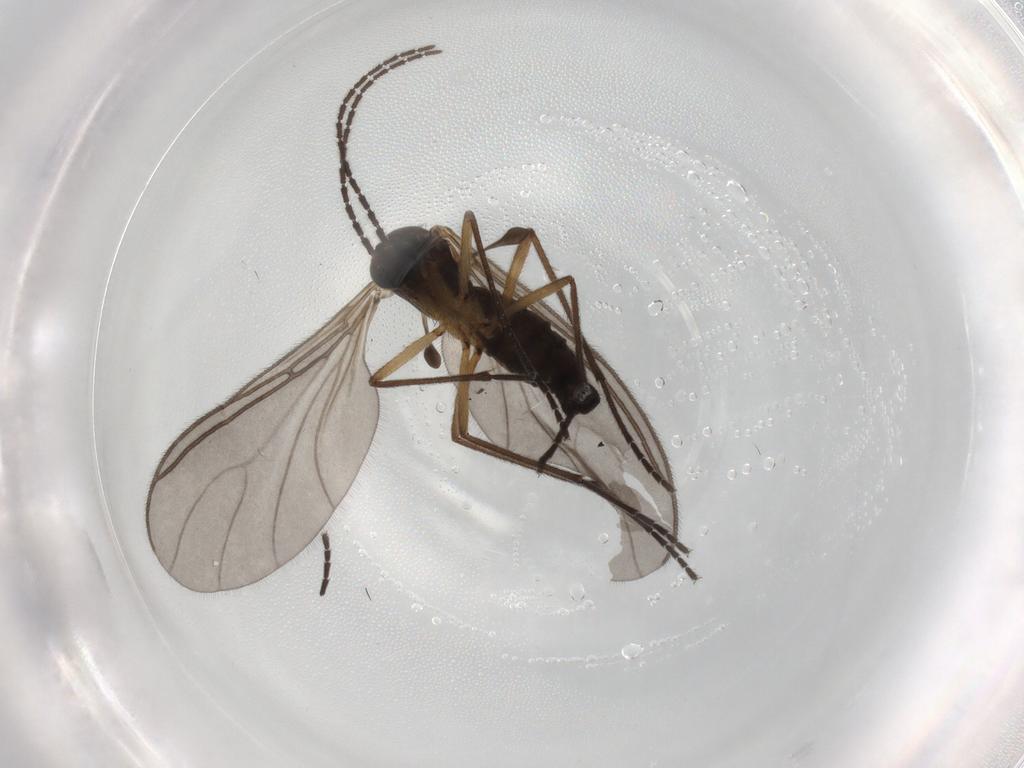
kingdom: Animalia
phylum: Arthropoda
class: Insecta
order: Diptera
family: Sciaridae
